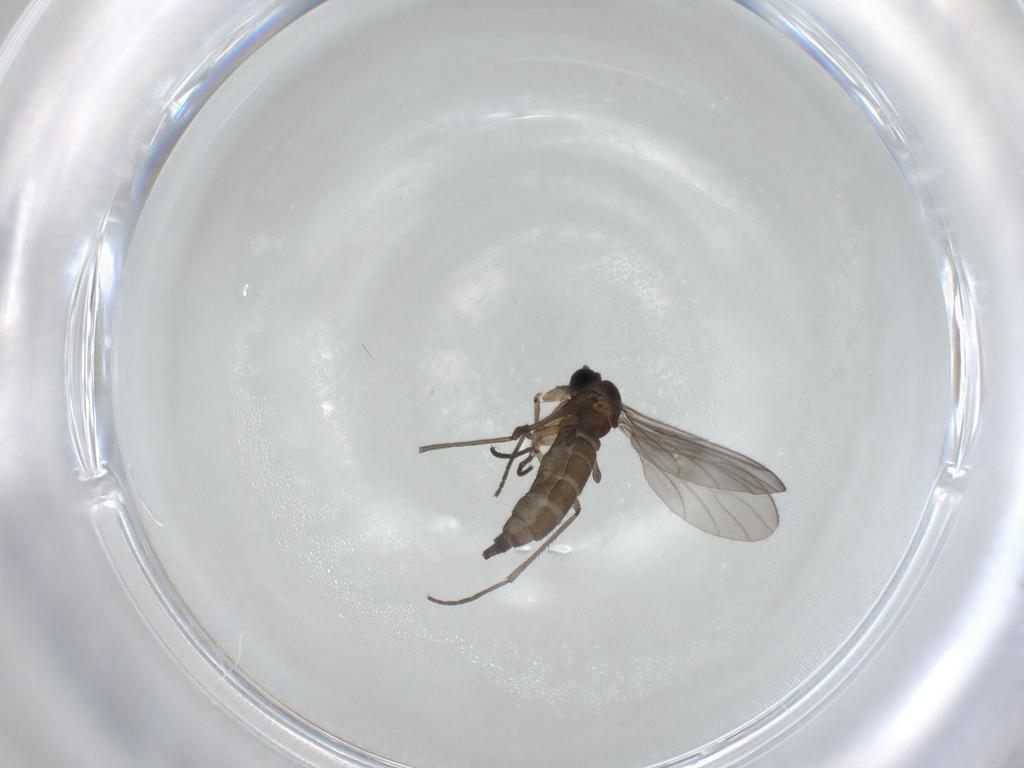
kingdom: Animalia
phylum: Arthropoda
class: Insecta
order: Diptera
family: Sciaridae
